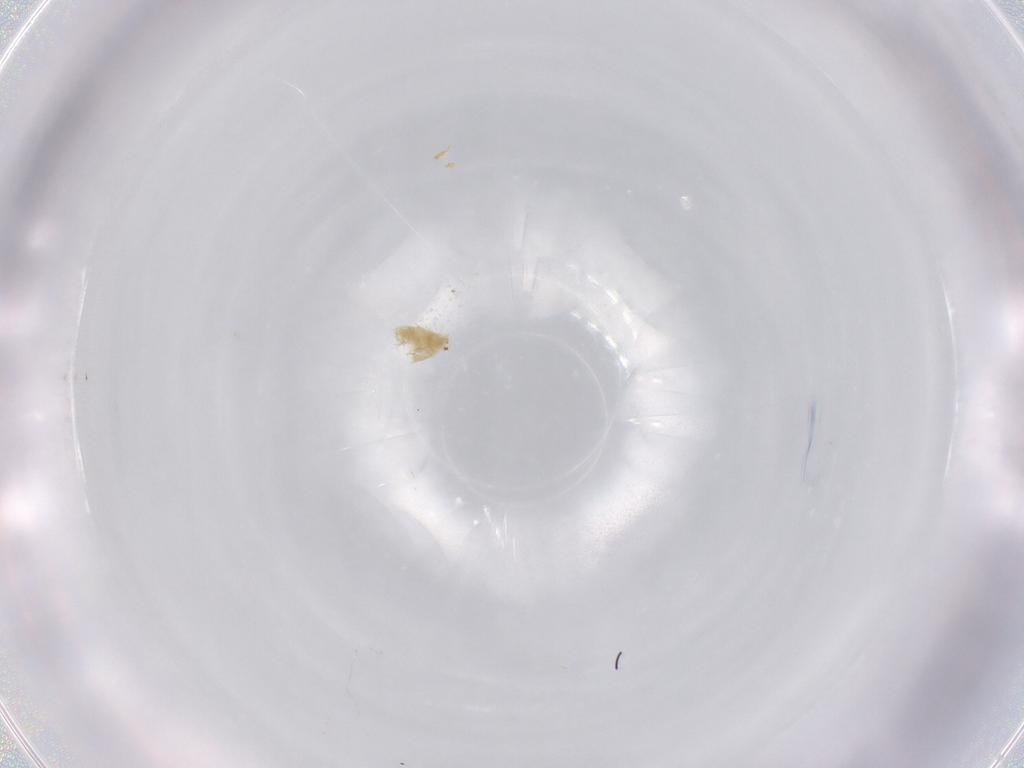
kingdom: Animalia
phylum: Arthropoda
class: Arachnida
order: Trombidiformes
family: Eupodidae
